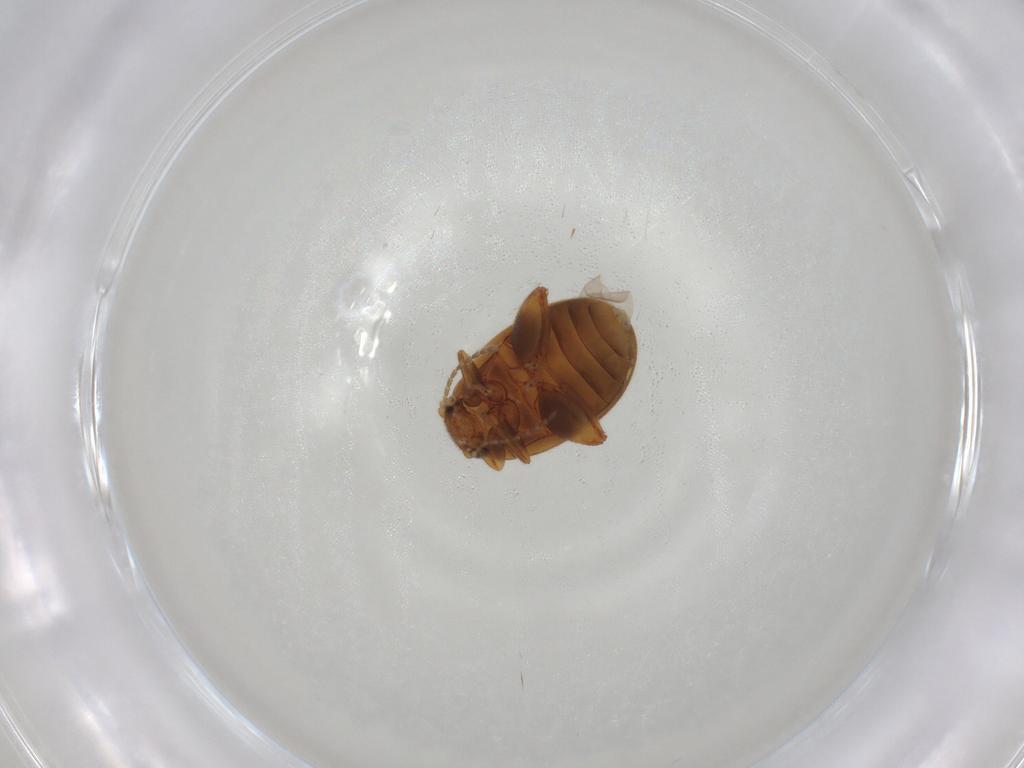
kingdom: Animalia
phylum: Arthropoda
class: Insecta
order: Coleoptera
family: Scirtidae
